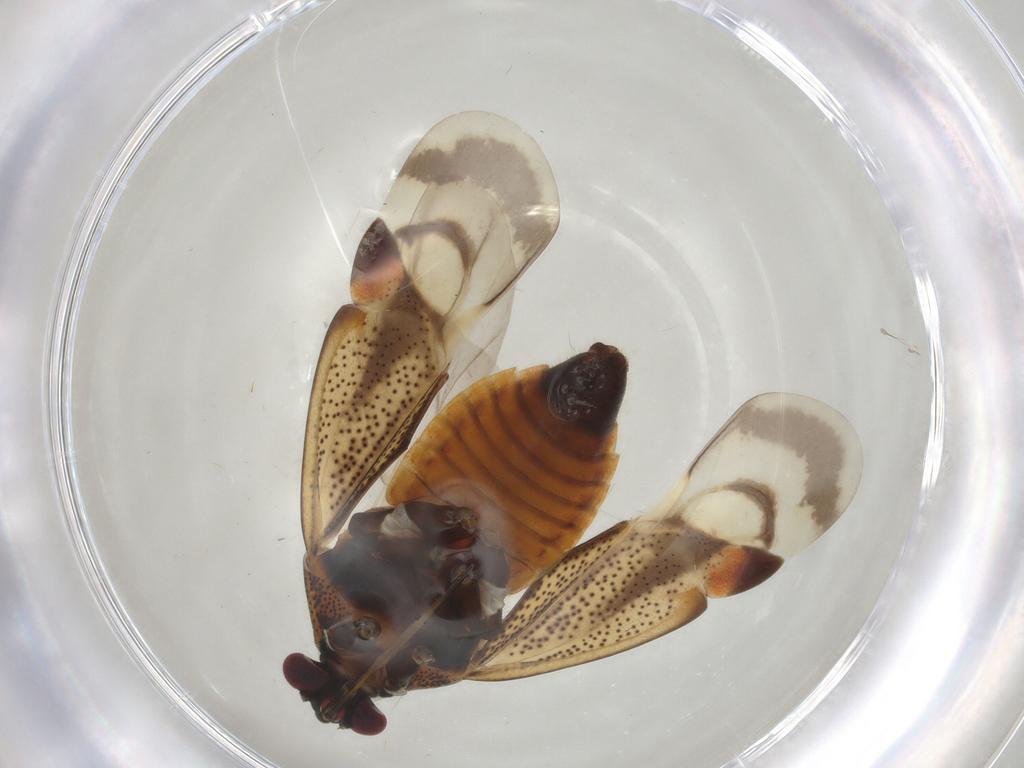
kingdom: Animalia
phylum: Arthropoda
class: Insecta
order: Hemiptera
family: Miridae
